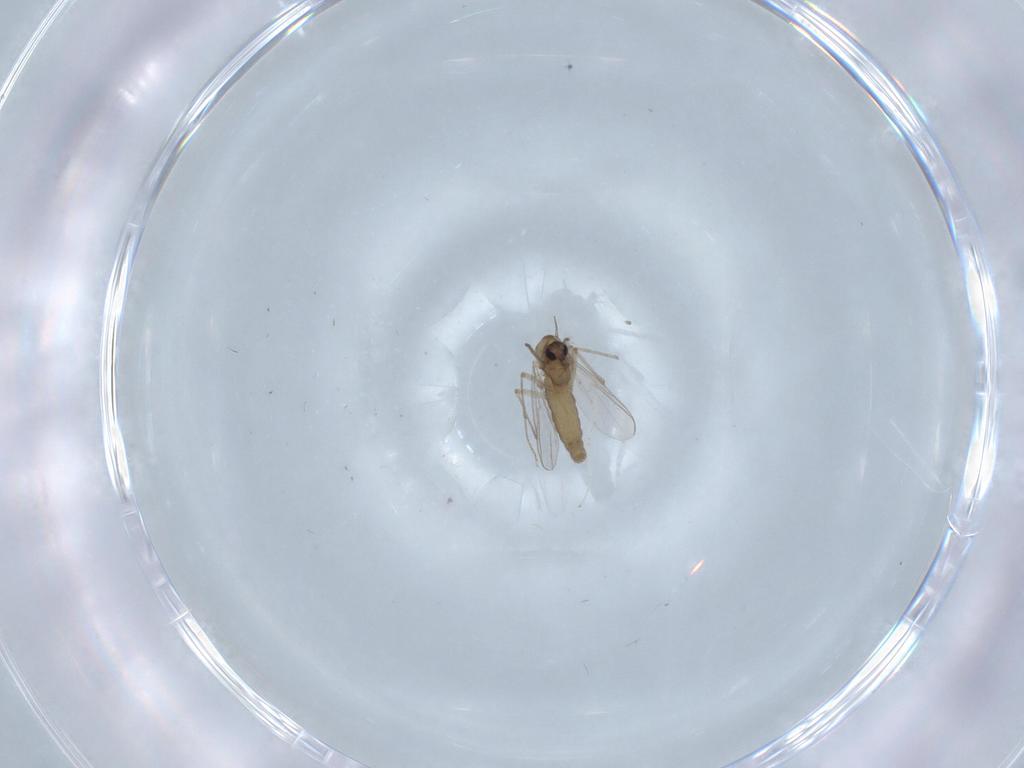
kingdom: Animalia
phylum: Arthropoda
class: Insecta
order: Diptera
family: Chironomidae
